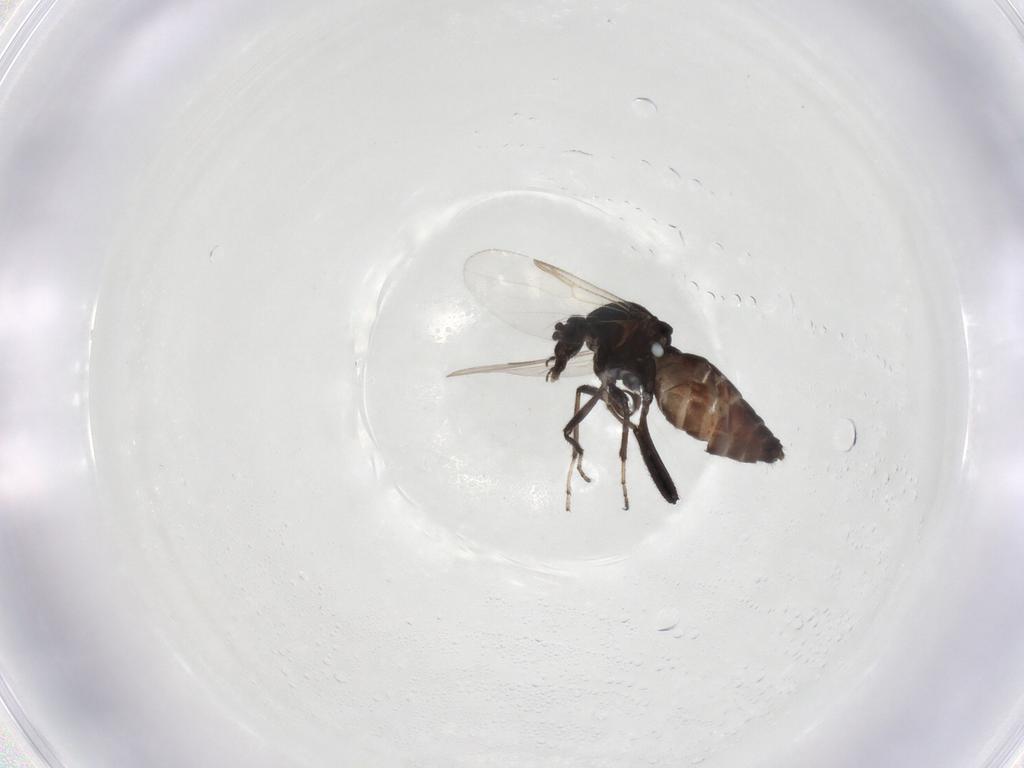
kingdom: Animalia
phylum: Arthropoda
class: Insecta
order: Diptera
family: Ceratopogonidae
